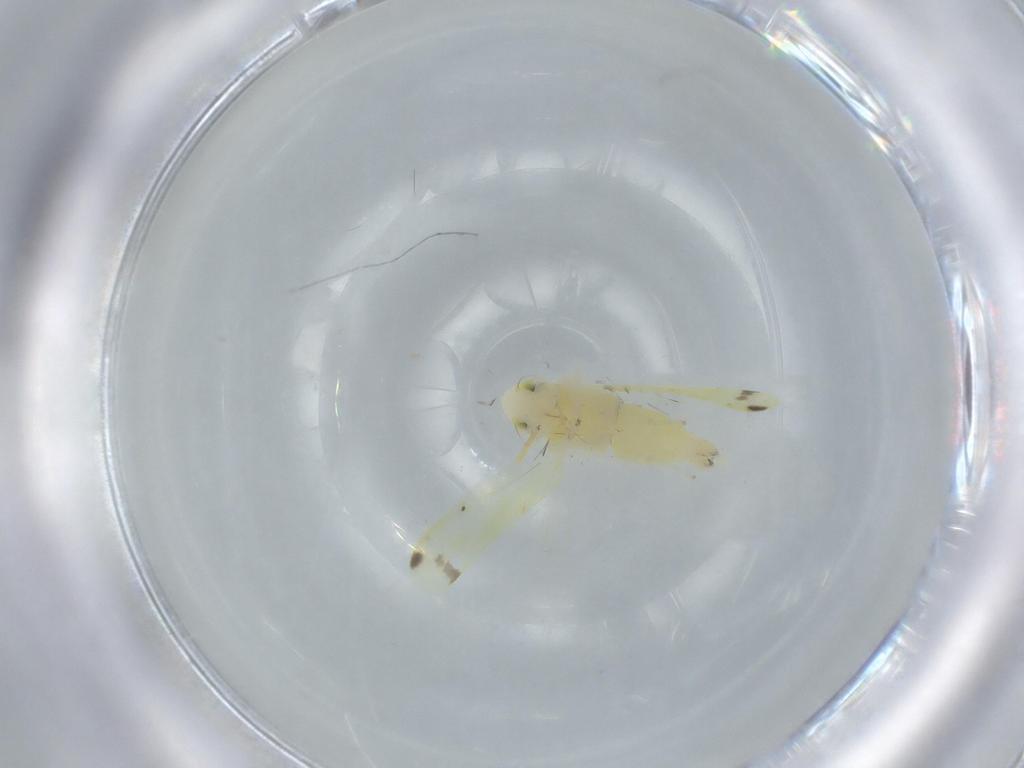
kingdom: Animalia
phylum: Arthropoda
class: Insecta
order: Hemiptera
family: Cicadellidae
